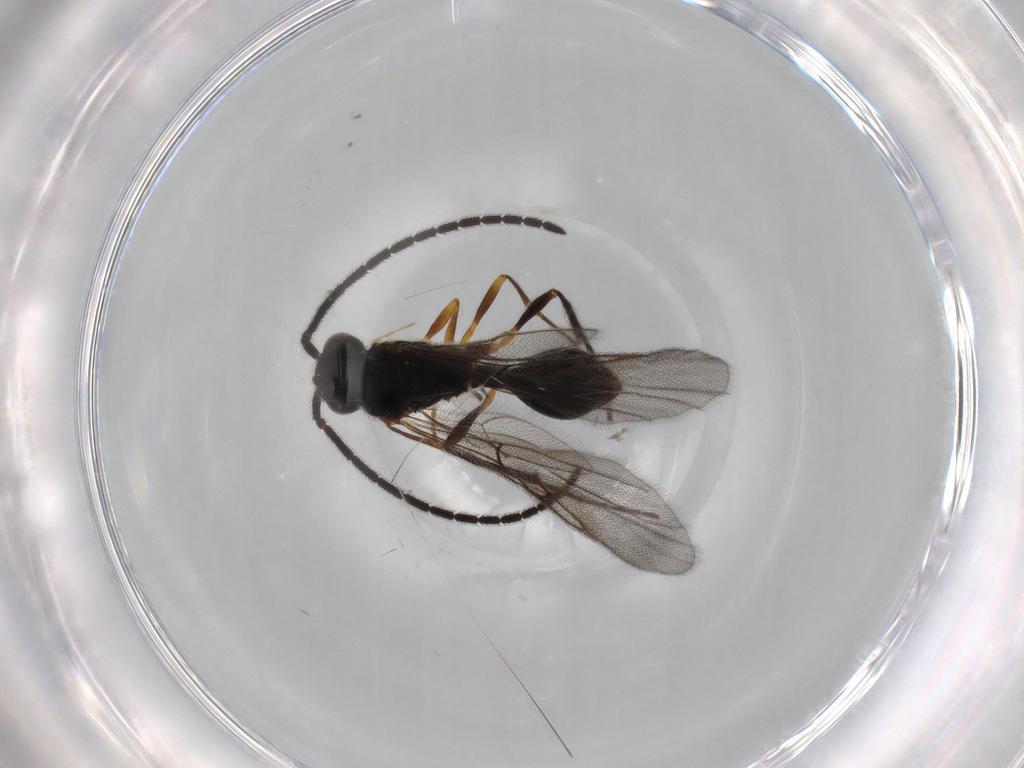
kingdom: Animalia
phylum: Arthropoda
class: Insecta
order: Hymenoptera
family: Diapriidae
